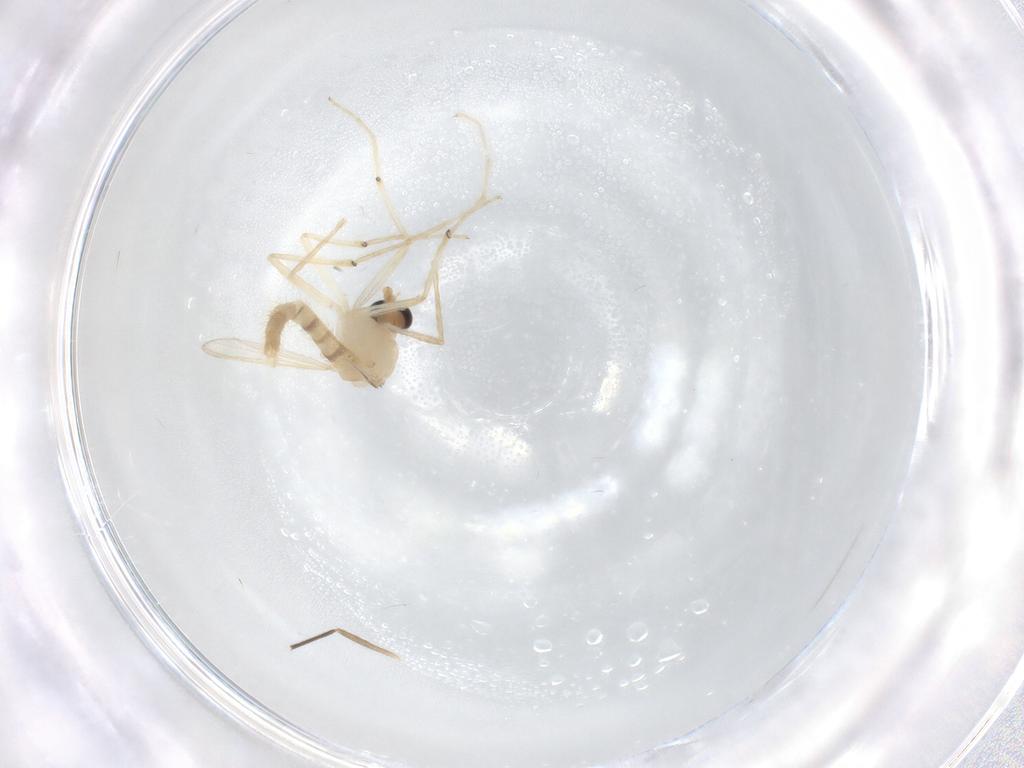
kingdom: Animalia
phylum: Arthropoda
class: Insecta
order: Diptera
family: Chironomidae
